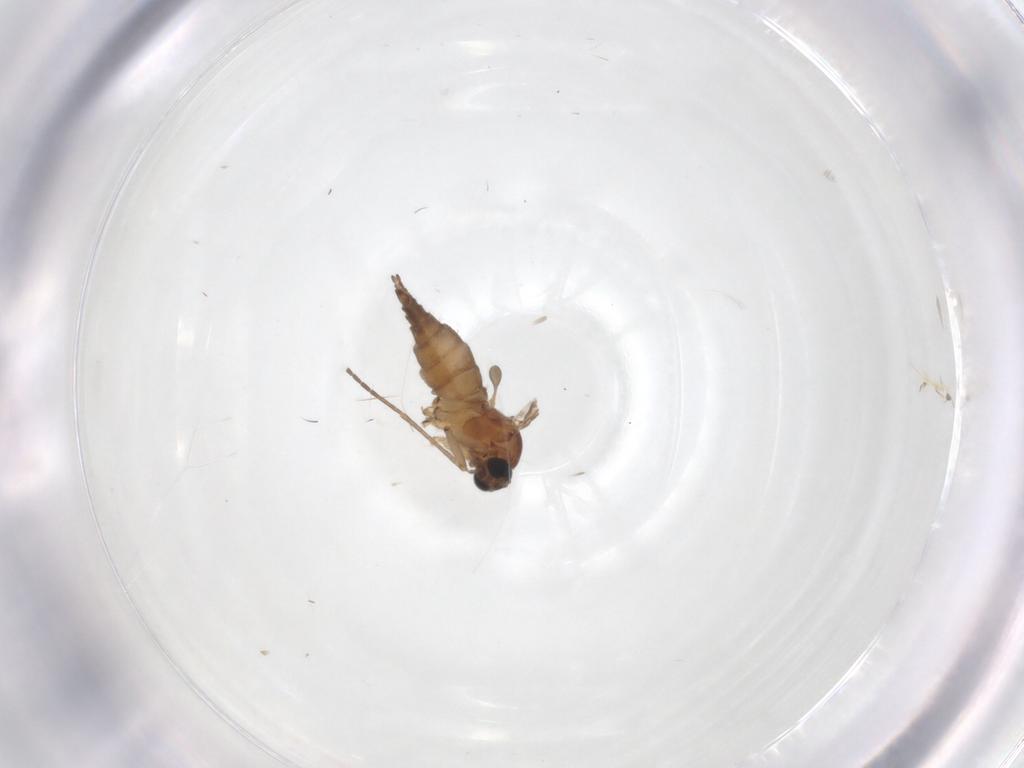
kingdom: Animalia
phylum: Arthropoda
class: Insecta
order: Diptera
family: Sciaridae
